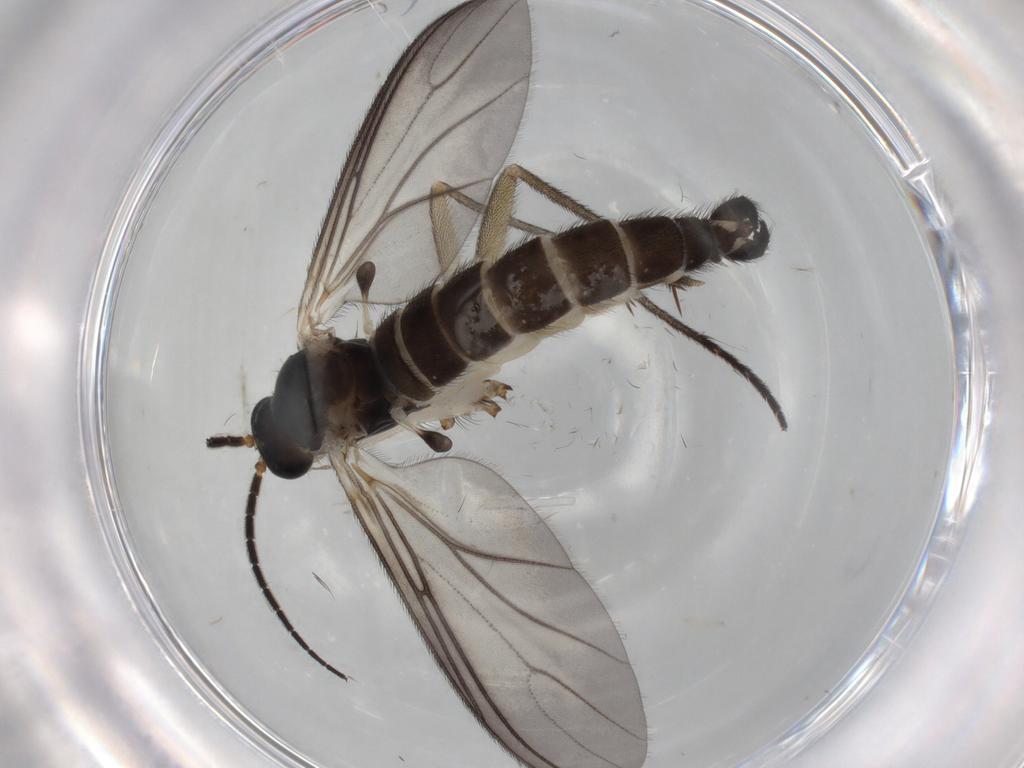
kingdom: Animalia
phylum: Arthropoda
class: Insecta
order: Diptera
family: Sciaridae
